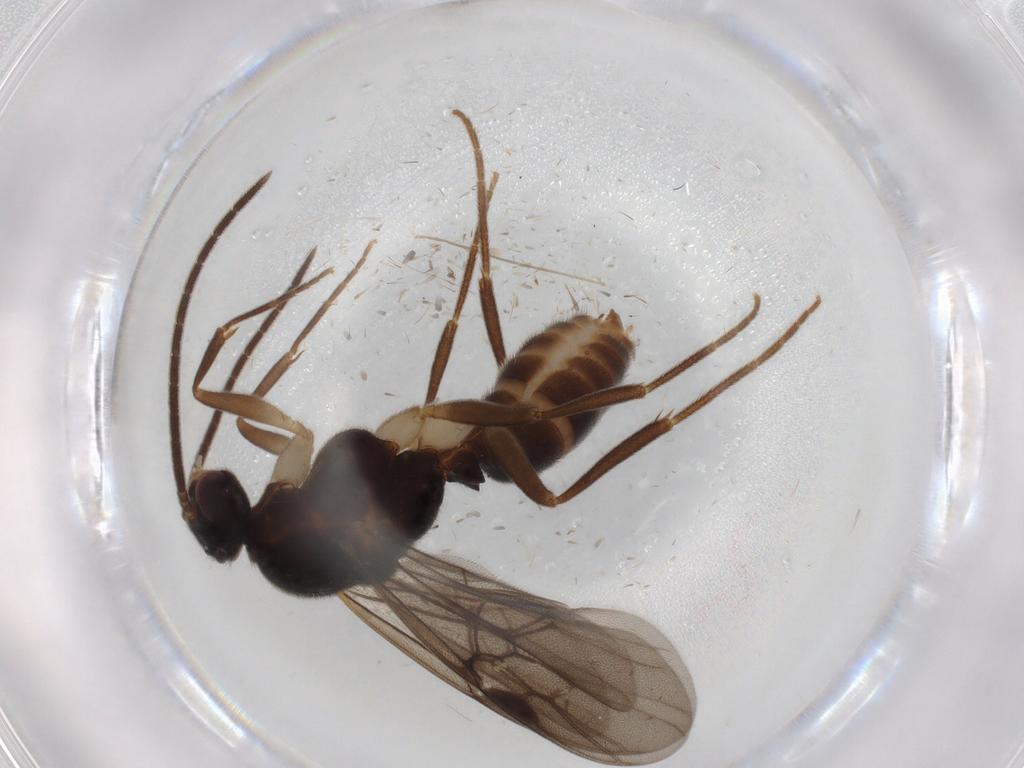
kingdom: Animalia
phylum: Arthropoda
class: Insecta
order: Hymenoptera
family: Formicidae
